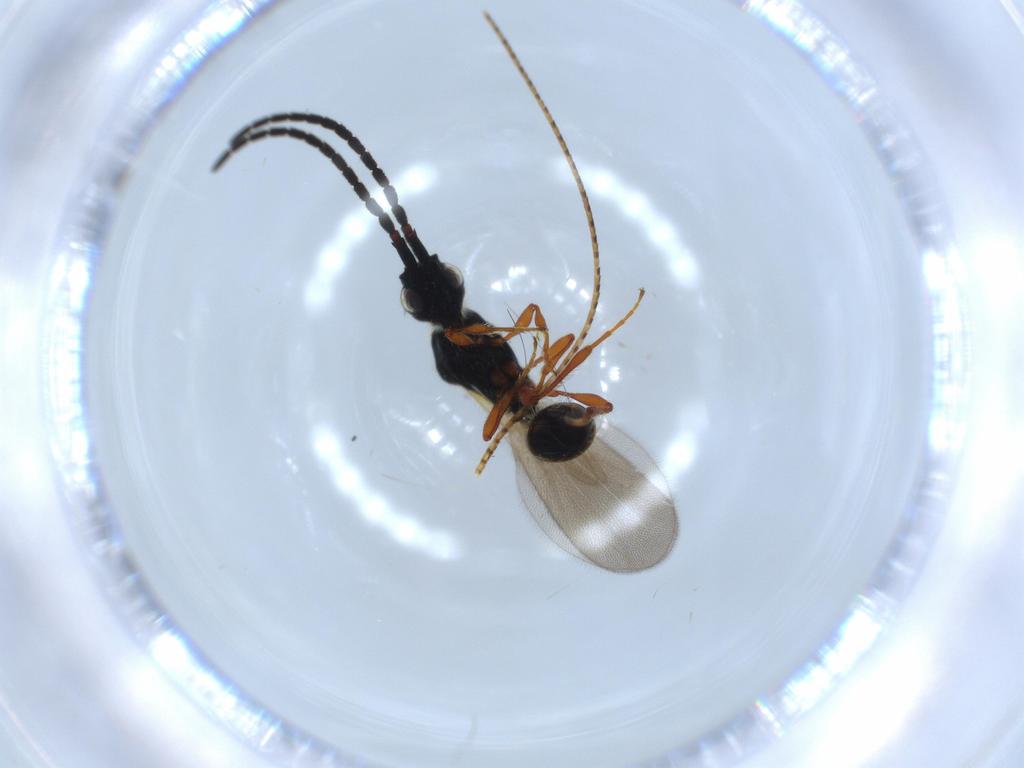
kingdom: Animalia
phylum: Arthropoda
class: Insecta
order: Hymenoptera
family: Diapriidae
